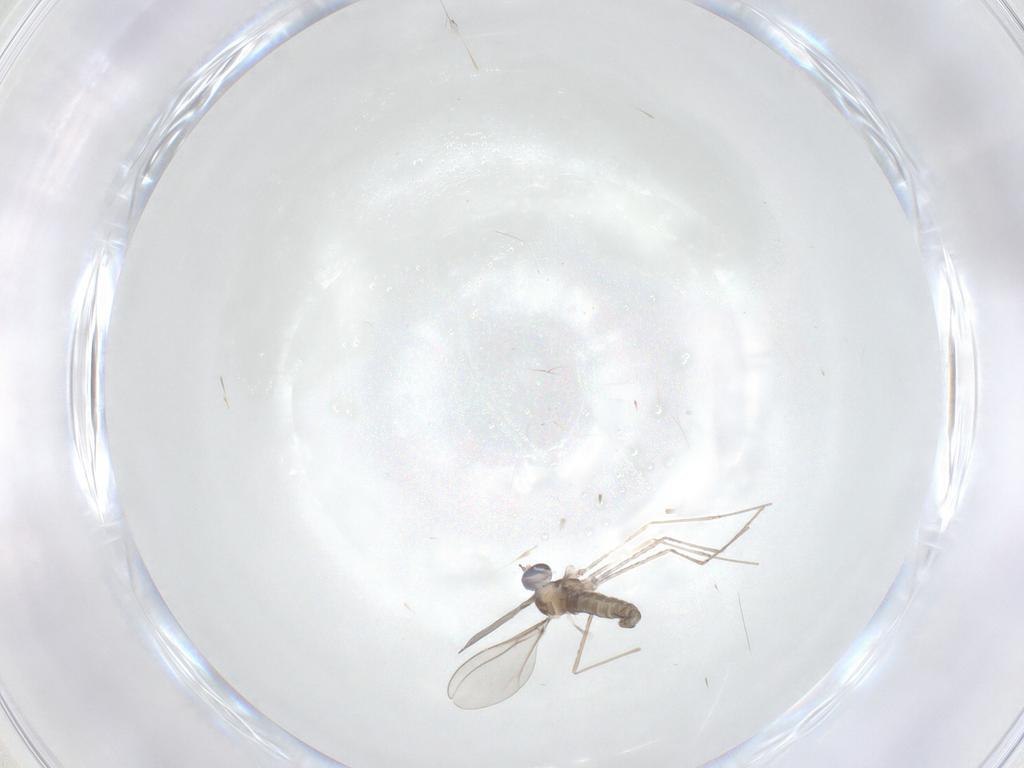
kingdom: Animalia
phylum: Arthropoda
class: Insecta
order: Diptera
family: Cecidomyiidae
